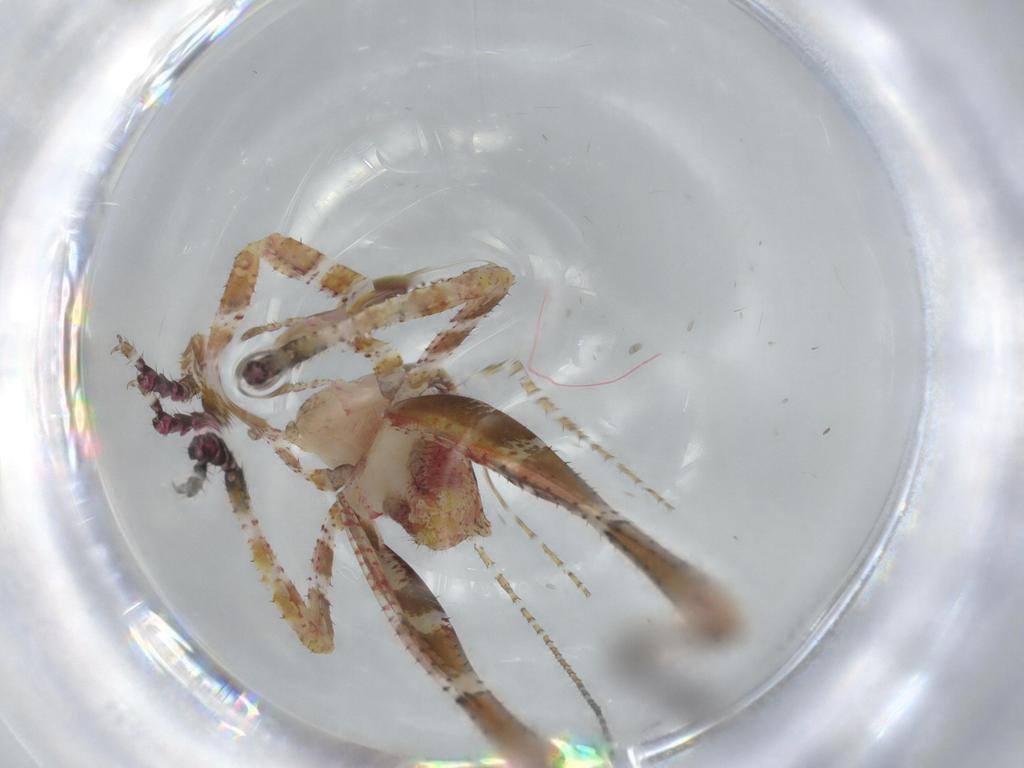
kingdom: Animalia
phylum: Arthropoda
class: Insecta
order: Orthoptera
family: Tettigoniidae
